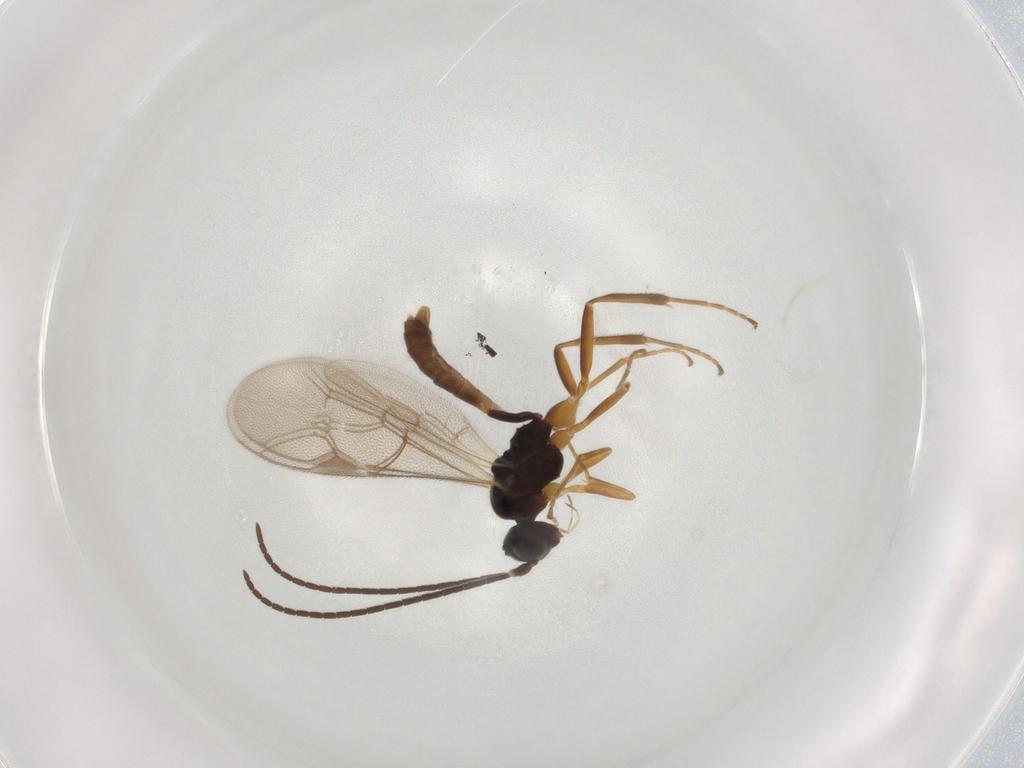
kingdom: Animalia
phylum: Arthropoda
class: Insecta
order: Hymenoptera
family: Ichneumonidae
